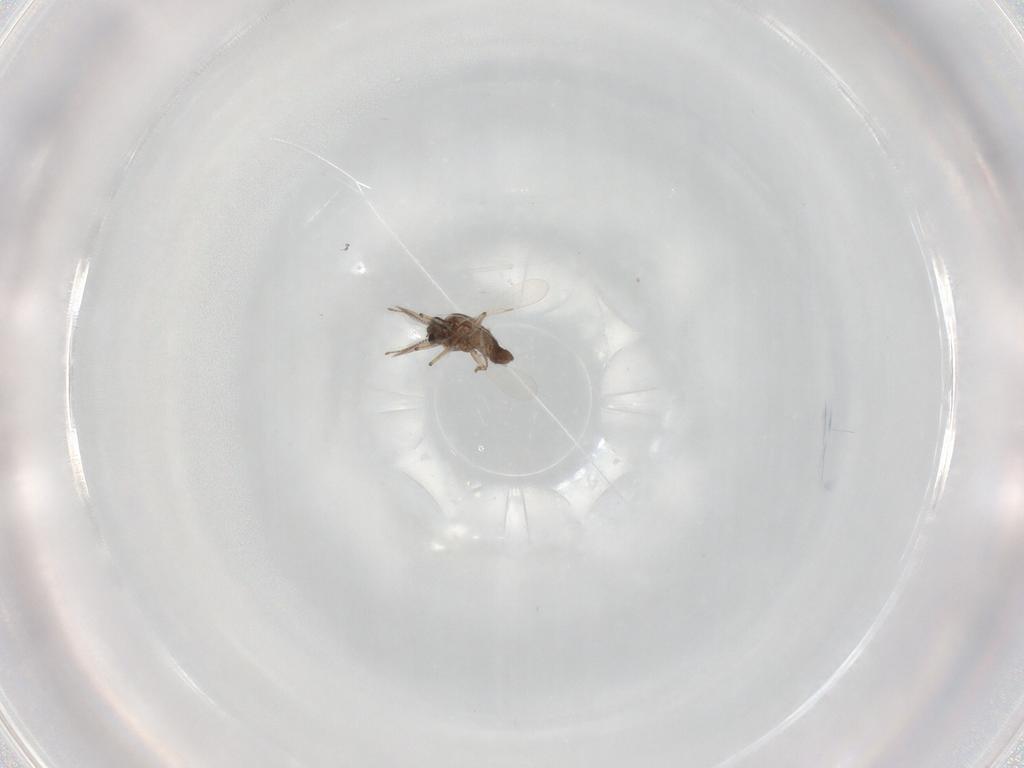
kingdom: Animalia
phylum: Arthropoda
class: Insecta
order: Diptera
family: Ceratopogonidae
